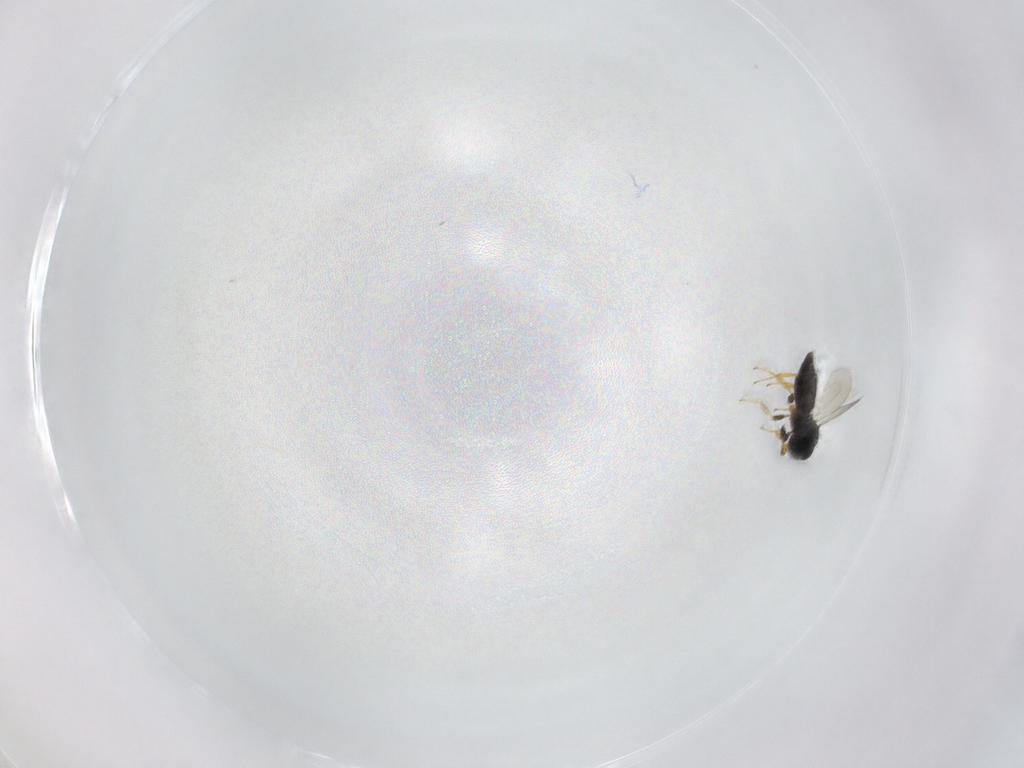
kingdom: Animalia
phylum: Arthropoda
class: Insecta
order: Hymenoptera
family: Platygastridae
